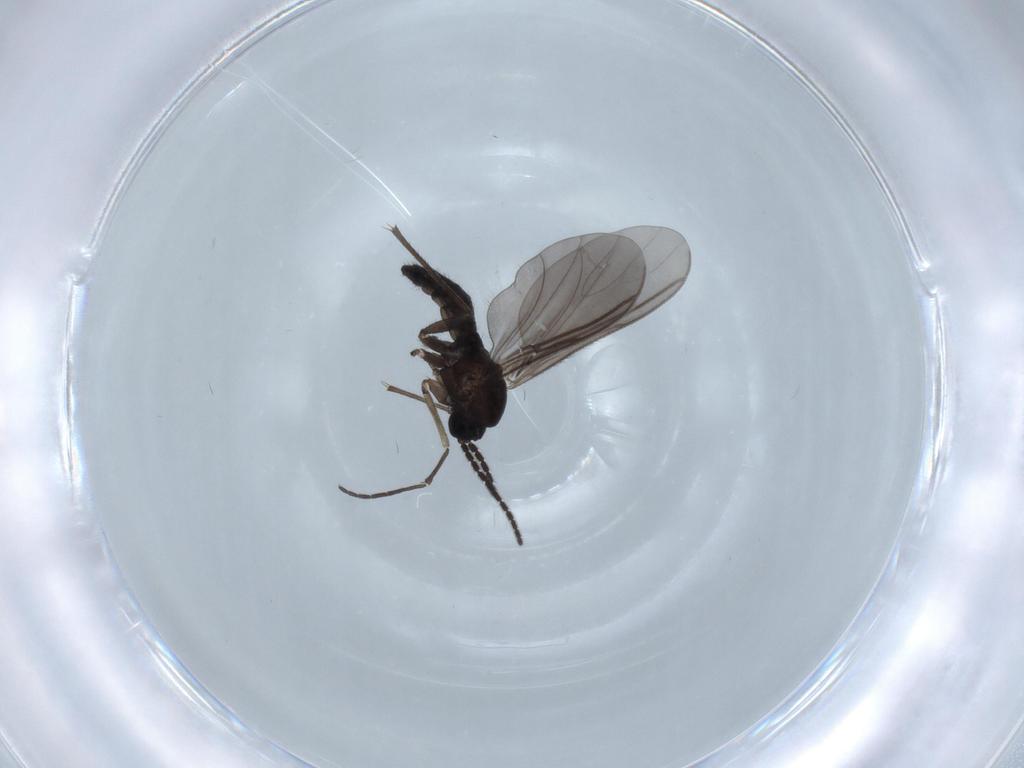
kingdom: Animalia
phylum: Arthropoda
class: Insecta
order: Diptera
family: Sciaridae
